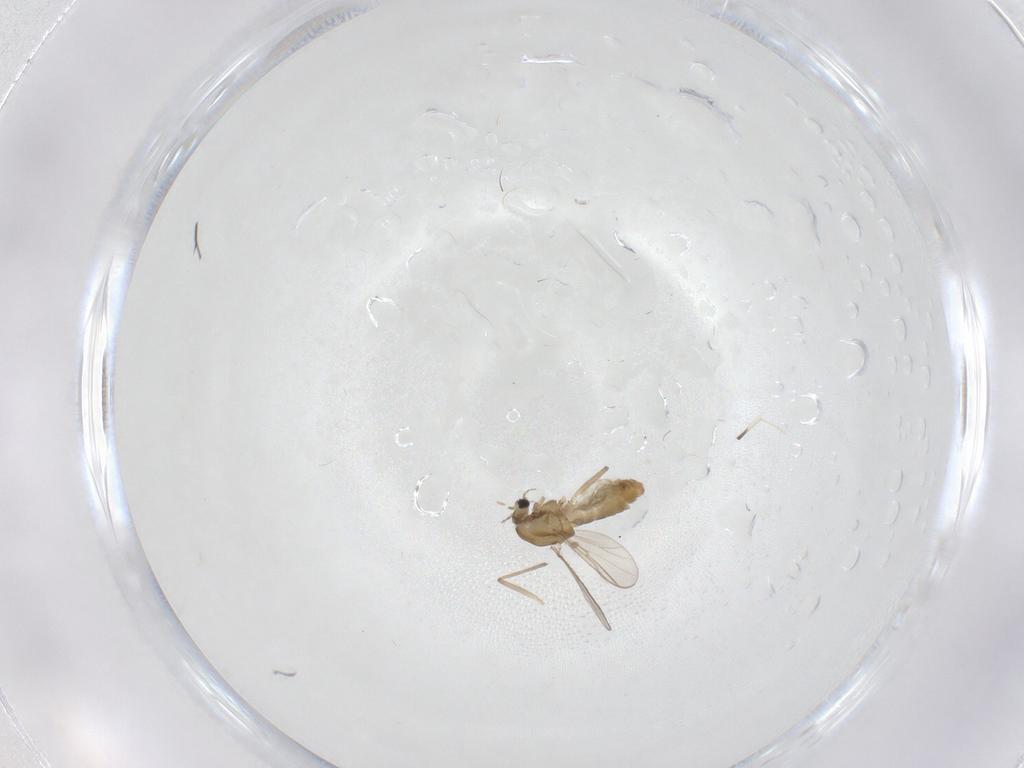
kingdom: Animalia
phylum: Arthropoda
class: Insecta
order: Diptera
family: Chironomidae
